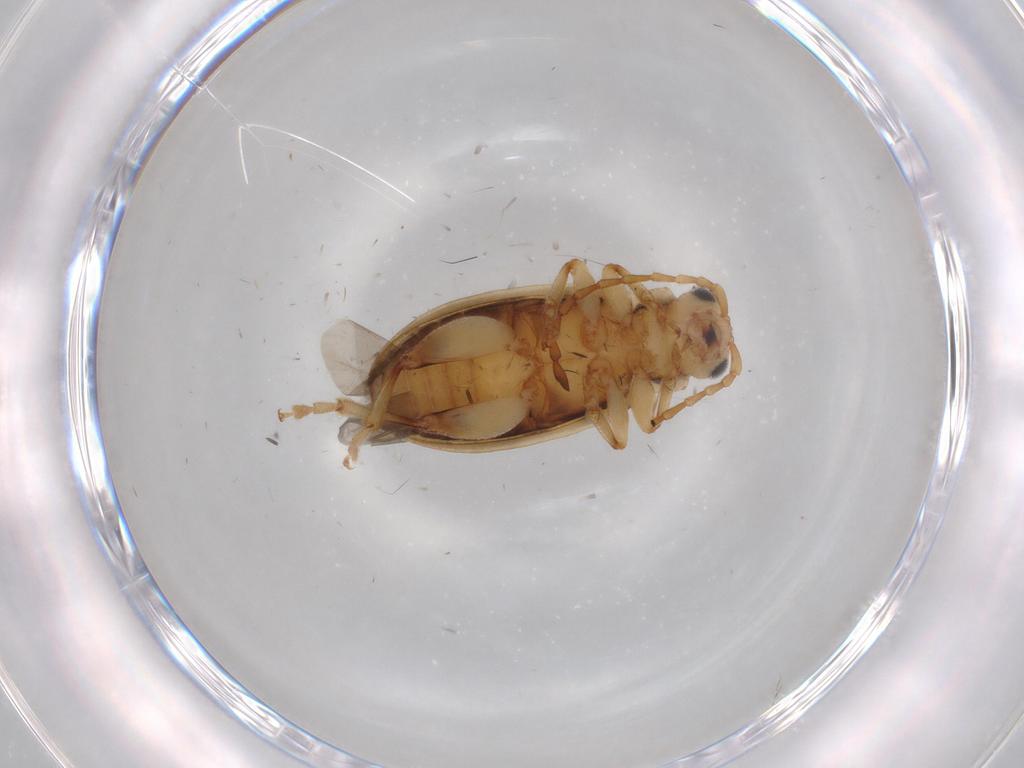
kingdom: Animalia
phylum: Arthropoda
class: Insecta
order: Coleoptera
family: Chrysomelidae
